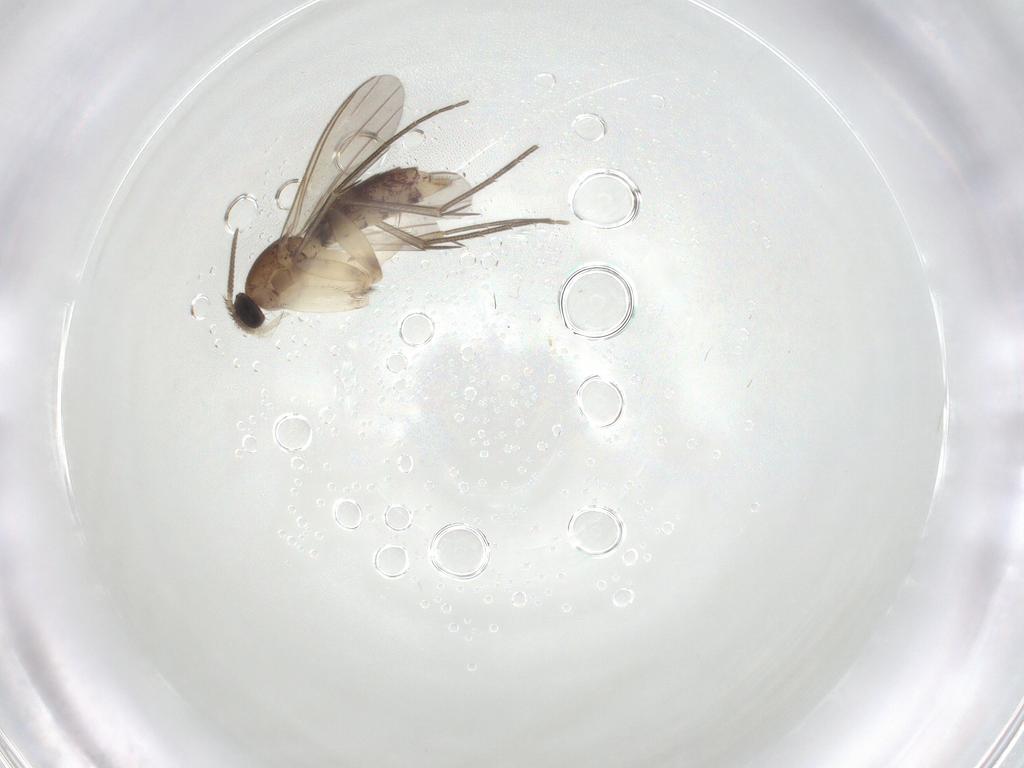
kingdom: Animalia
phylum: Arthropoda
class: Insecta
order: Diptera
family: Mycetophilidae
